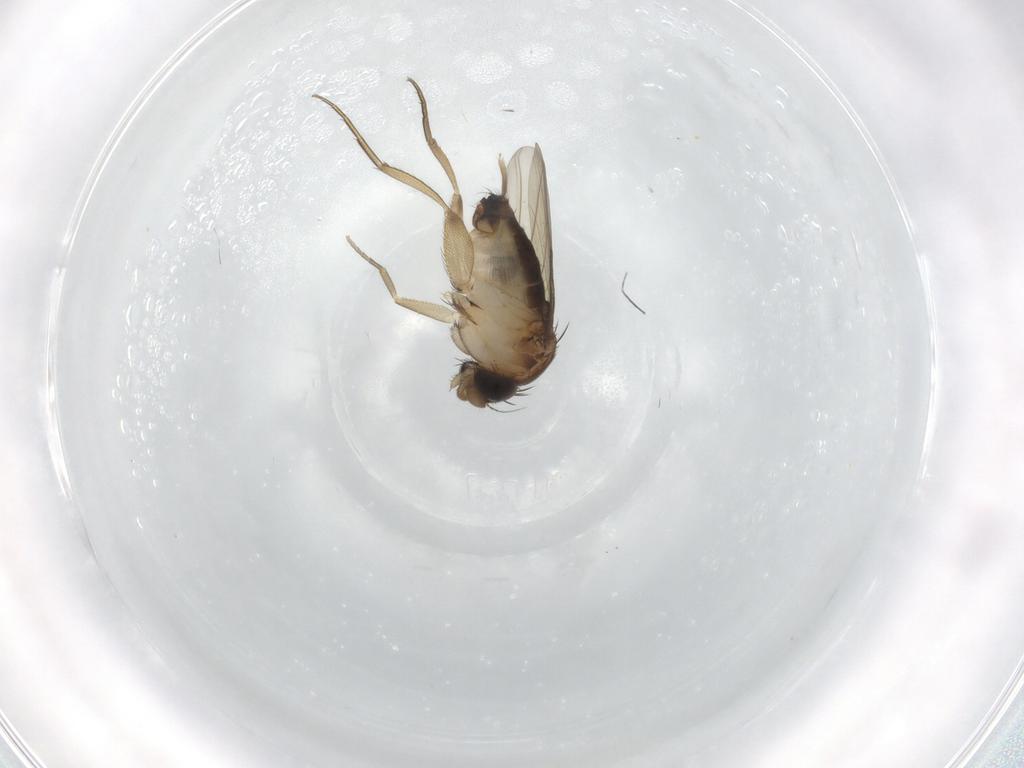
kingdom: Animalia
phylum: Arthropoda
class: Insecta
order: Diptera
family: Phoridae
